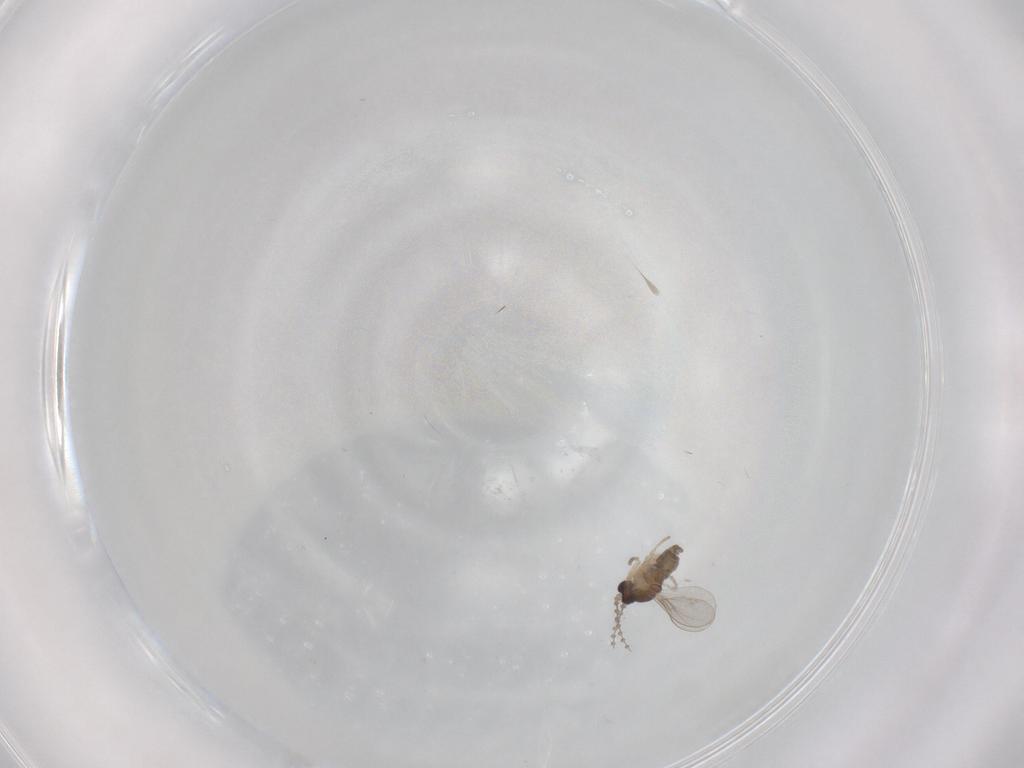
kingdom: Animalia
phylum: Arthropoda
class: Insecta
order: Diptera
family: Cecidomyiidae
